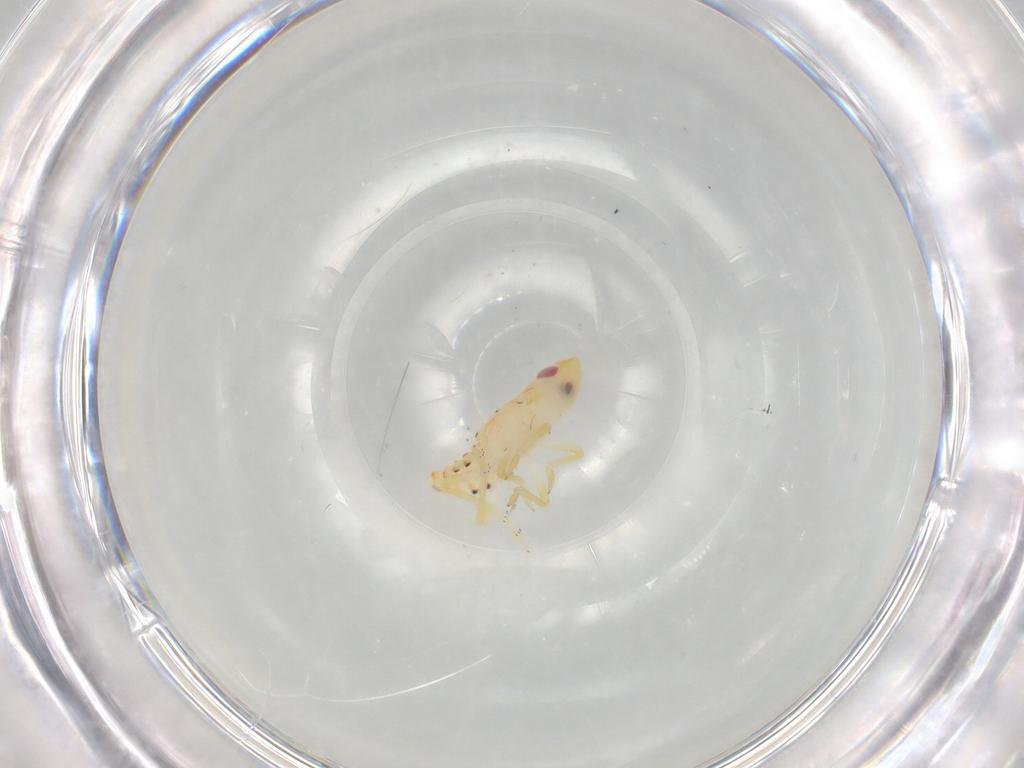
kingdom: Animalia
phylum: Arthropoda
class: Insecta
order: Hemiptera
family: Tropiduchidae
